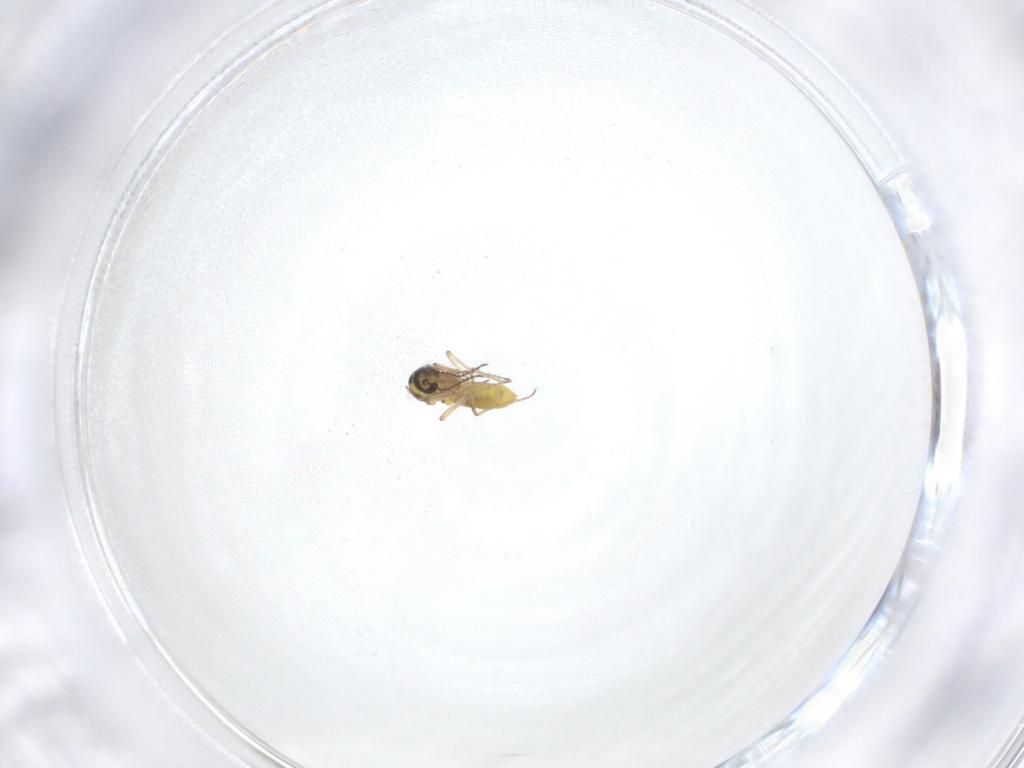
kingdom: Animalia
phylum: Arthropoda
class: Insecta
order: Diptera
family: Ceratopogonidae
